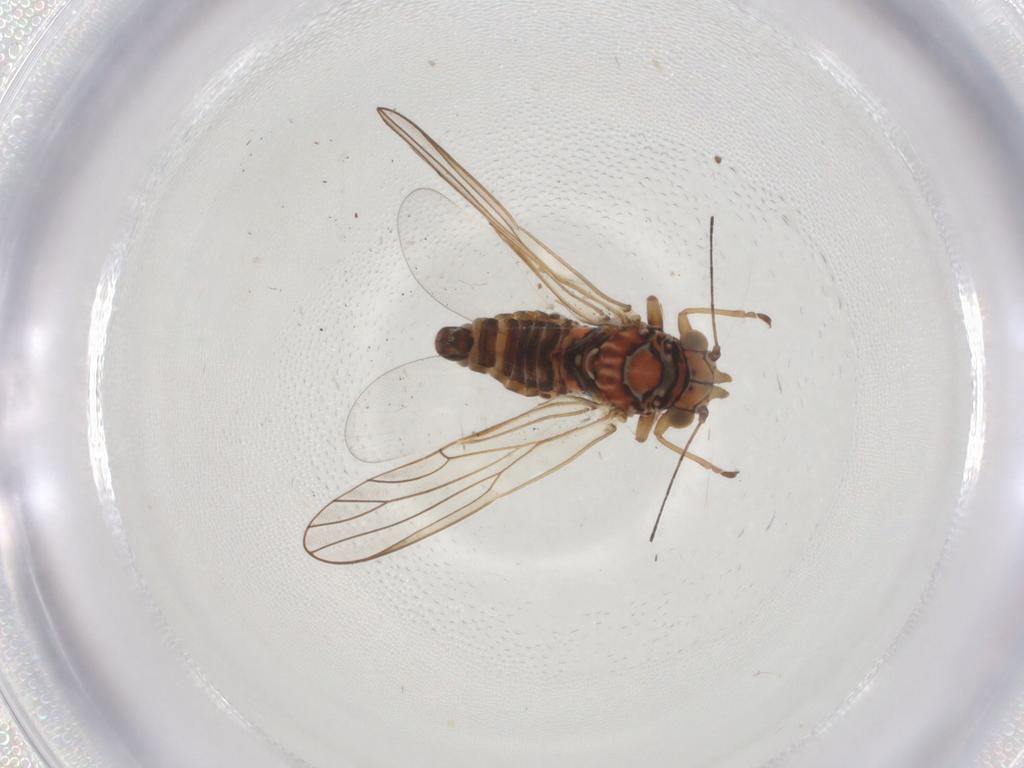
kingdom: Animalia
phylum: Arthropoda
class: Insecta
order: Hemiptera
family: Psyllidae
